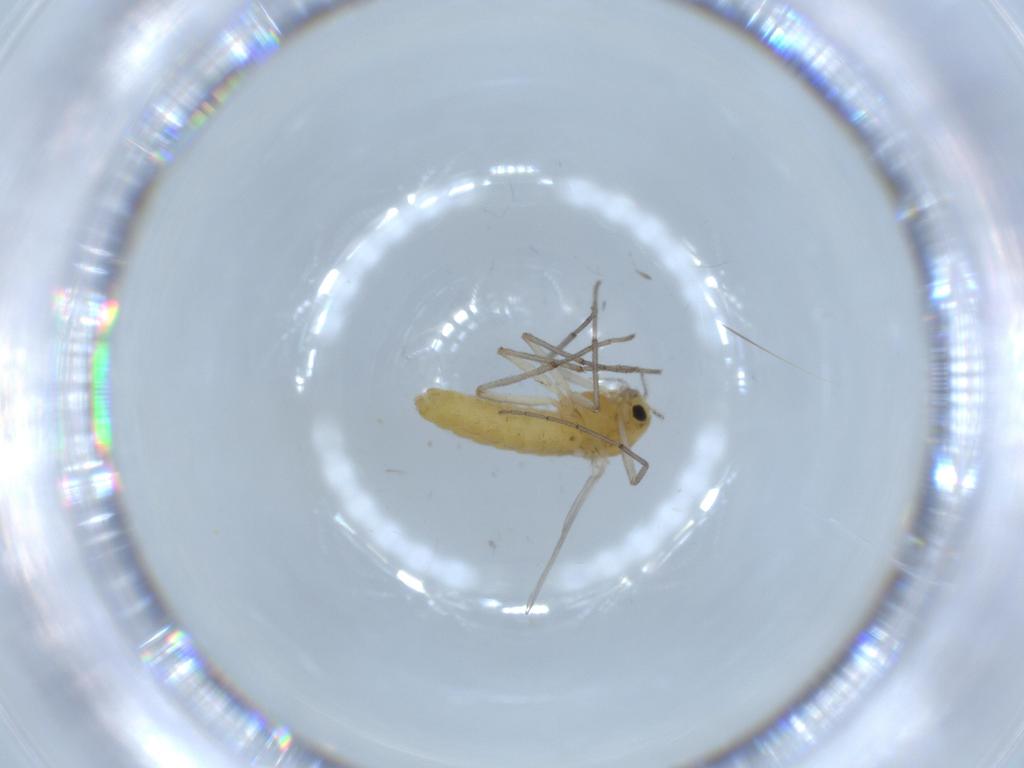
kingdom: Animalia
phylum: Arthropoda
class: Insecta
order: Diptera
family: Chironomidae
